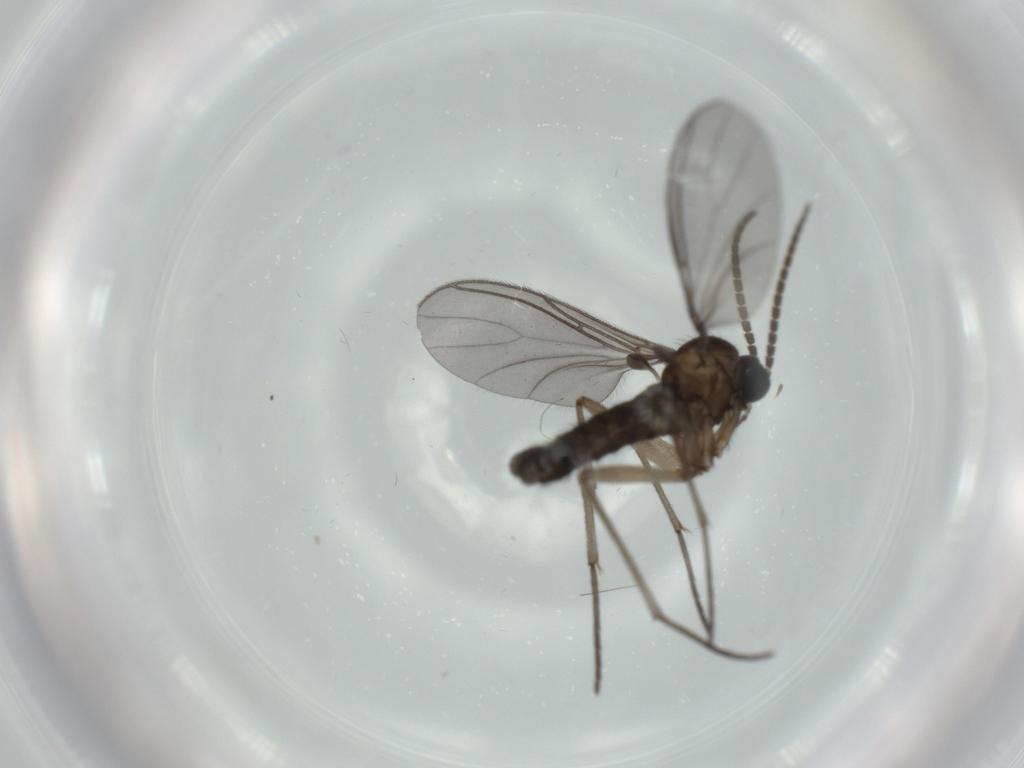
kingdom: Animalia
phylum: Arthropoda
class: Insecta
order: Diptera
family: Sciaridae
